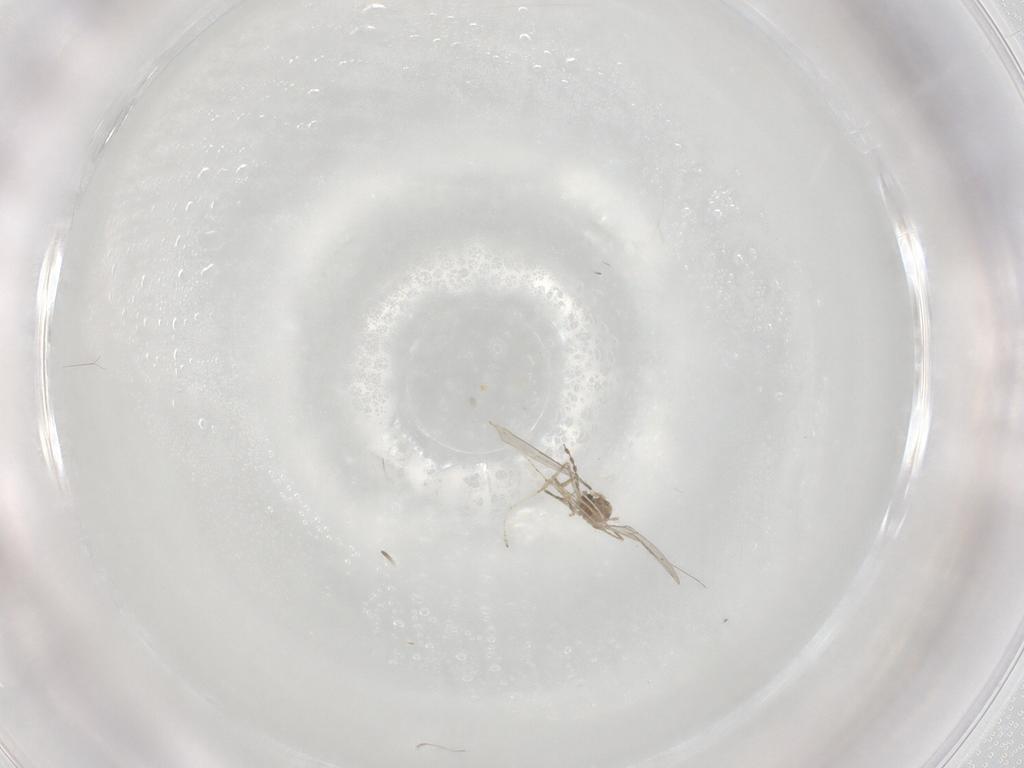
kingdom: Animalia
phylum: Arthropoda
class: Insecta
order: Diptera
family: Cecidomyiidae
